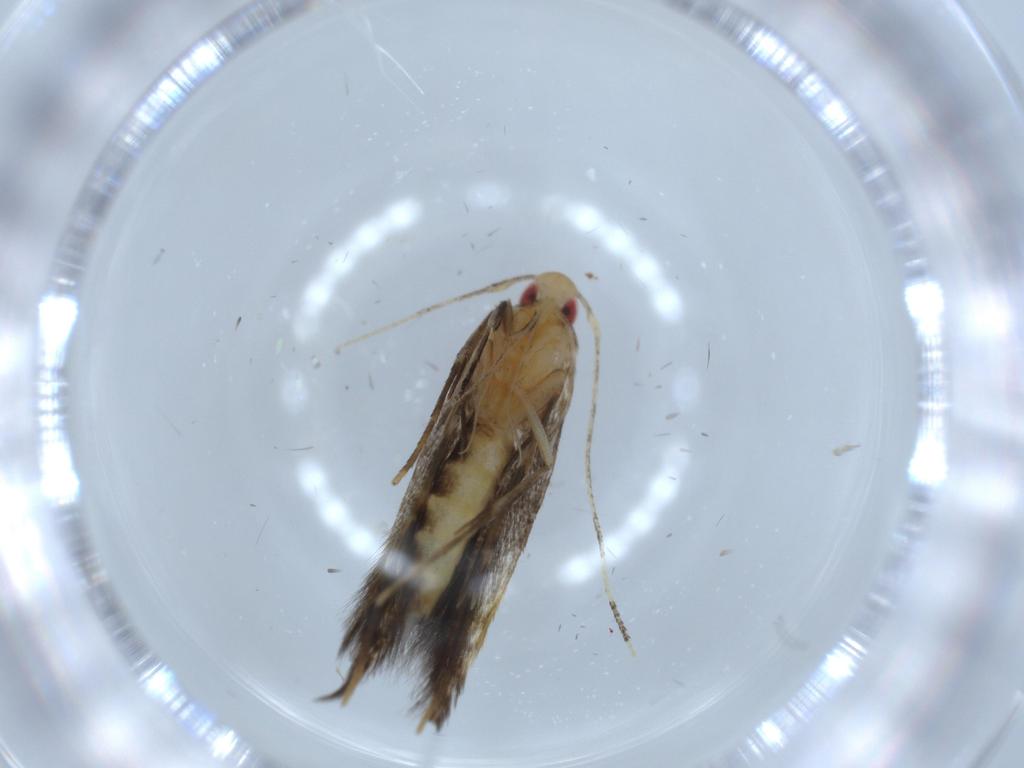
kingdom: Animalia
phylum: Arthropoda
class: Insecta
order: Lepidoptera
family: Cosmopterigidae
